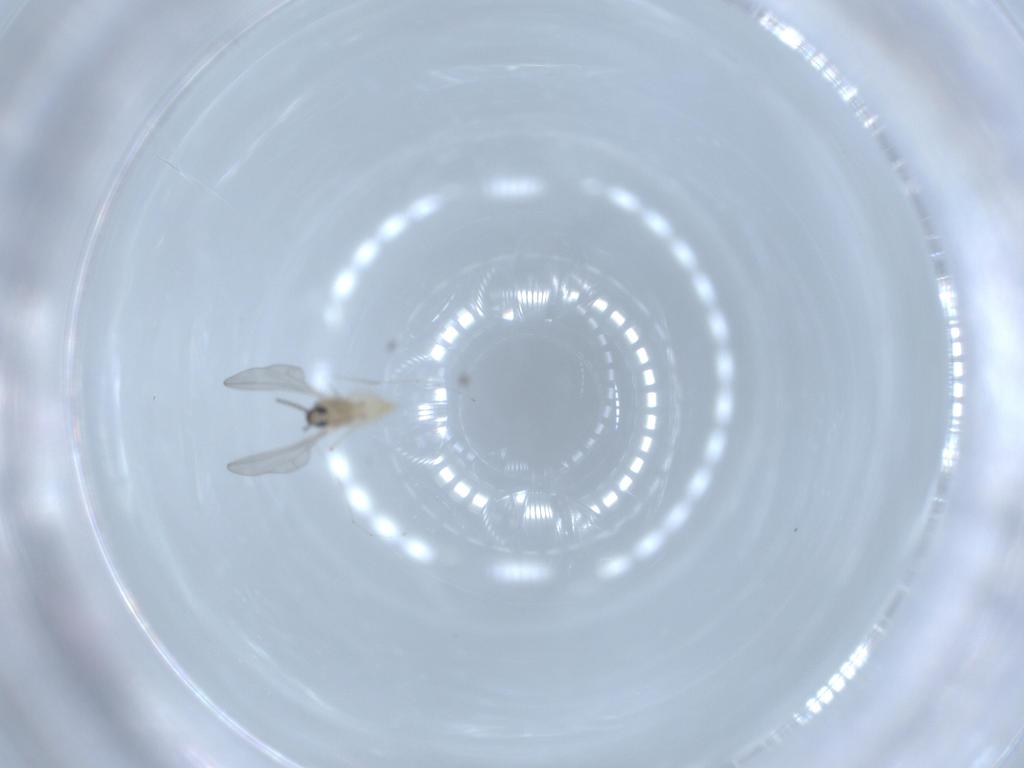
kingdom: Animalia
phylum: Arthropoda
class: Insecta
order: Diptera
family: Cecidomyiidae
